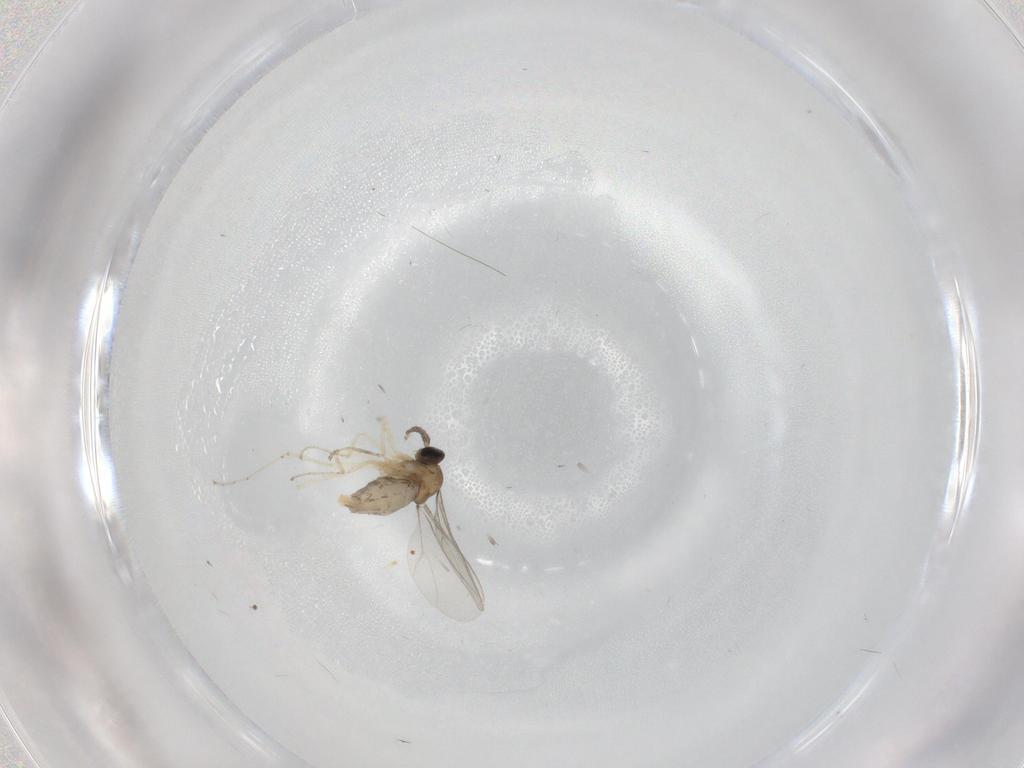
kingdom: Animalia
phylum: Arthropoda
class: Insecta
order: Diptera
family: Cecidomyiidae
